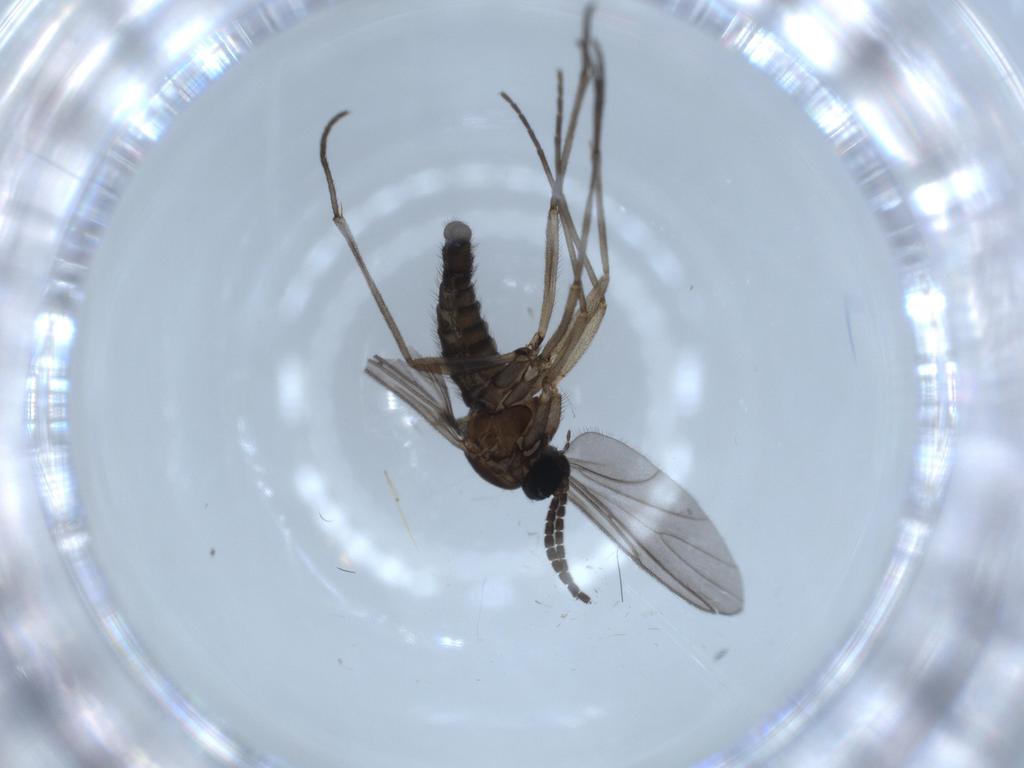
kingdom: Animalia
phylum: Arthropoda
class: Insecta
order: Diptera
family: Sciaridae
